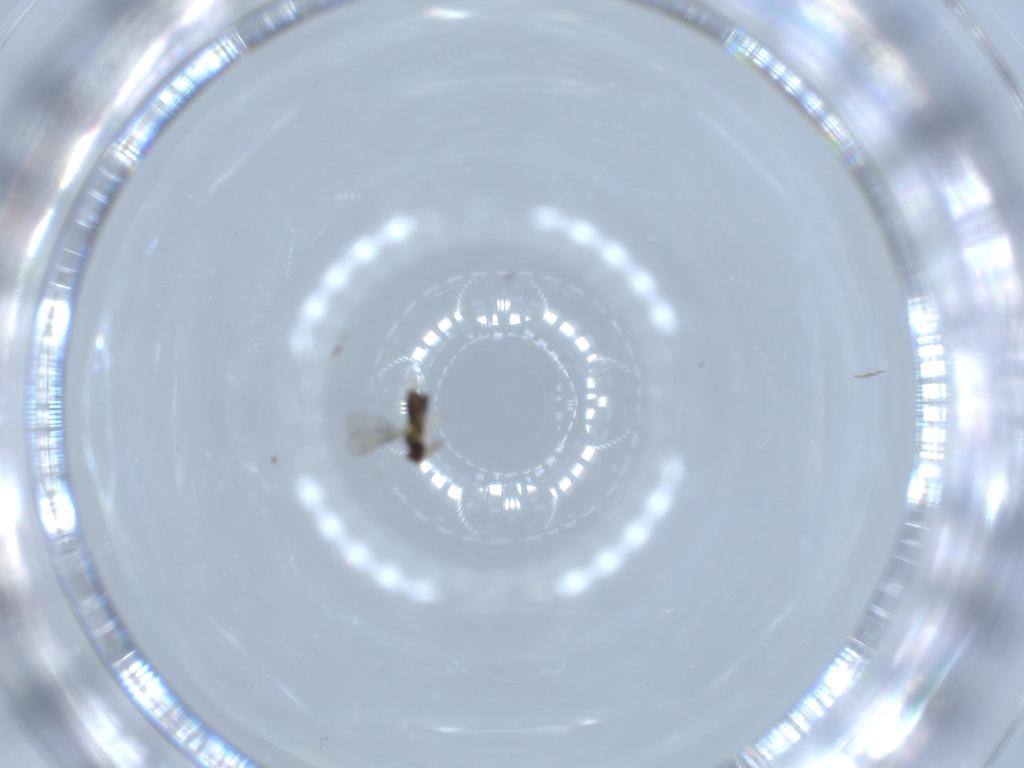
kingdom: Animalia
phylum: Arthropoda
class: Insecta
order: Hymenoptera
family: Aphelinidae
